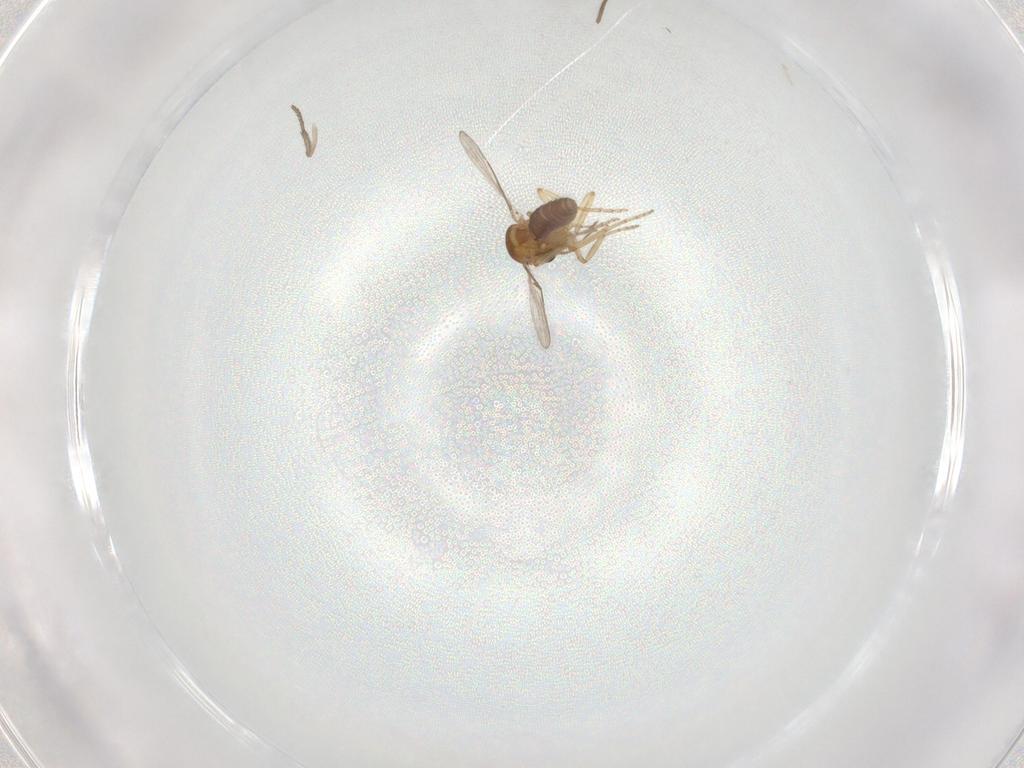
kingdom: Animalia
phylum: Arthropoda
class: Insecta
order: Diptera
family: Psychodidae
